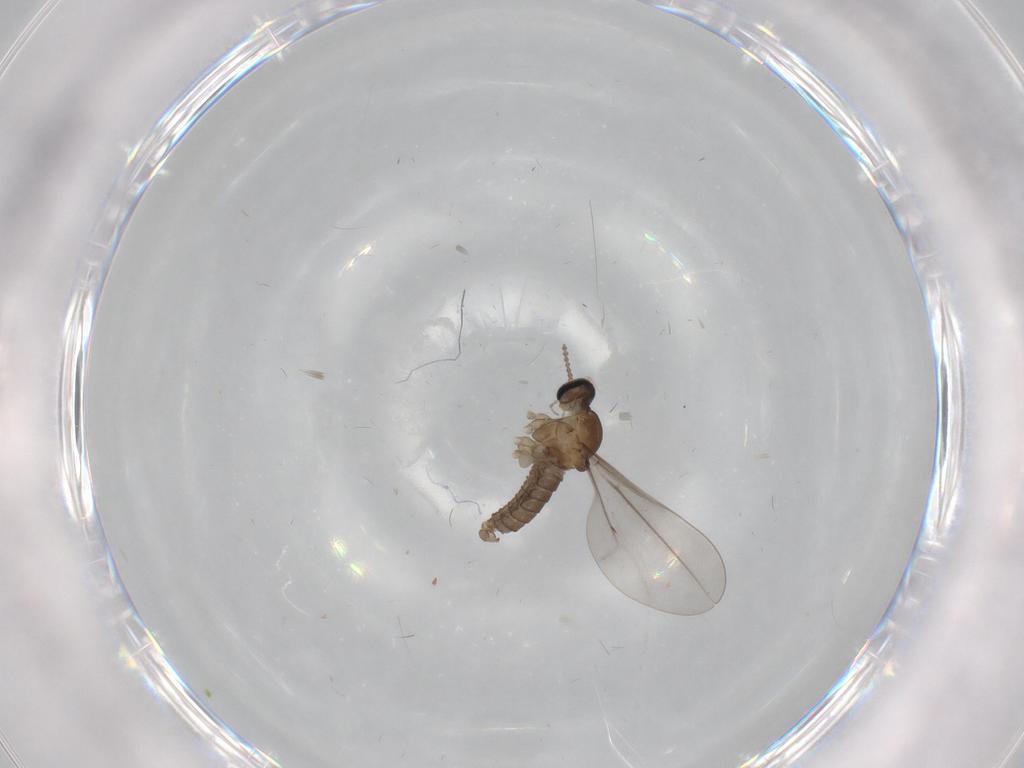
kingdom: Animalia
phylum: Arthropoda
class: Insecta
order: Diptera
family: Cecidomyiidae
